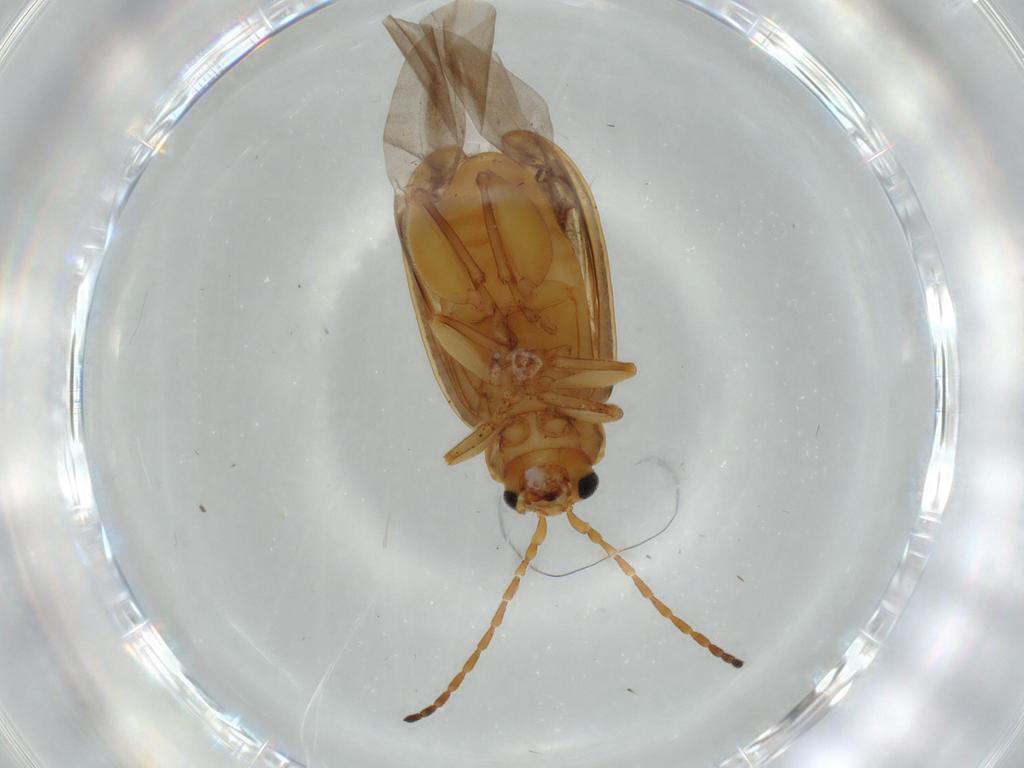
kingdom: Animalia
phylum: Arthropoda
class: Insecta
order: Coleoptera
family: Chrysomelidae
